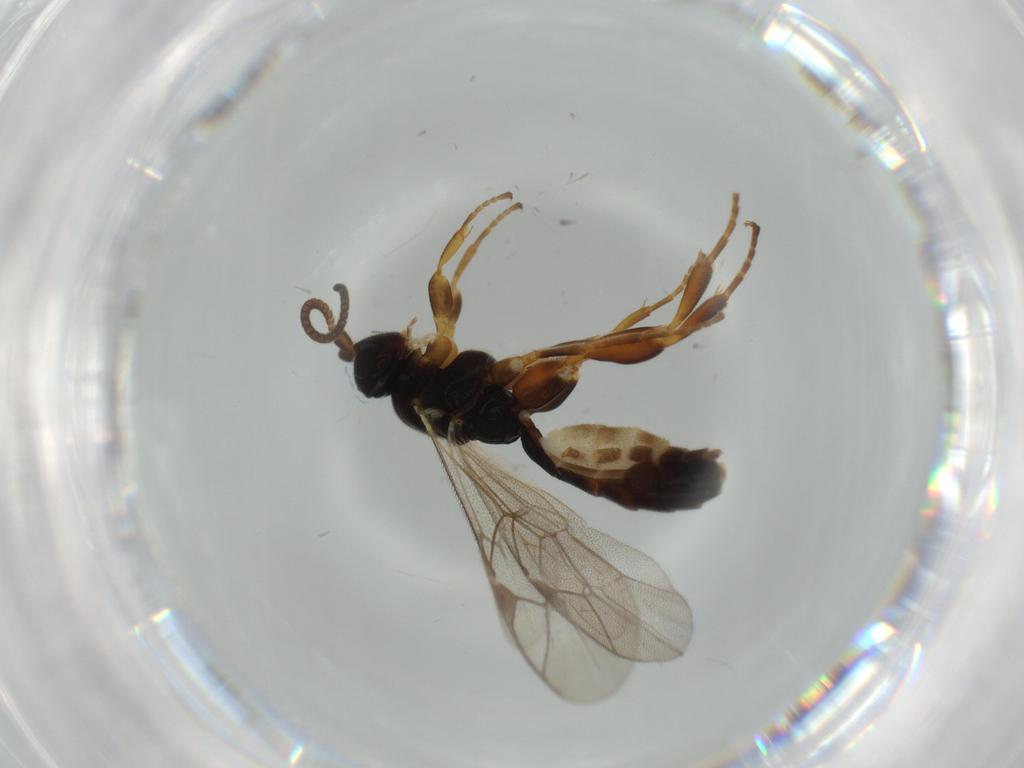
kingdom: Animalia
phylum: Arthropoda
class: Insecta
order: Hymenoptera
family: Ichneumonidae
